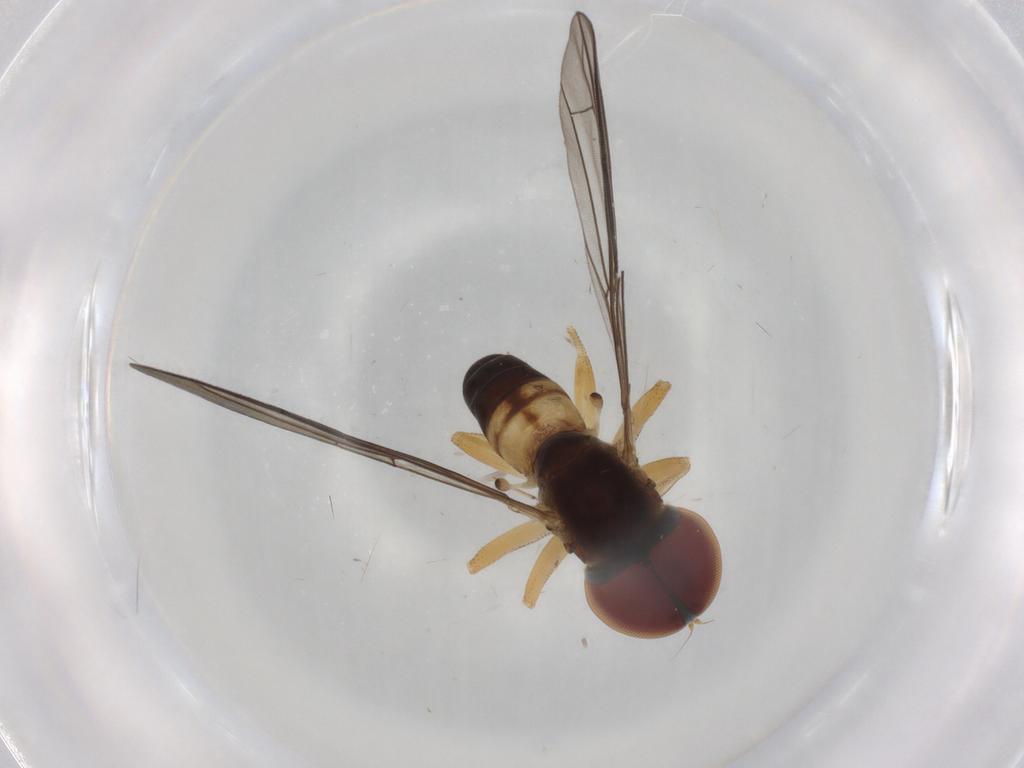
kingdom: Animalia
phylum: Arthropoda
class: Insecta
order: Diptera
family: Pipunculidae
